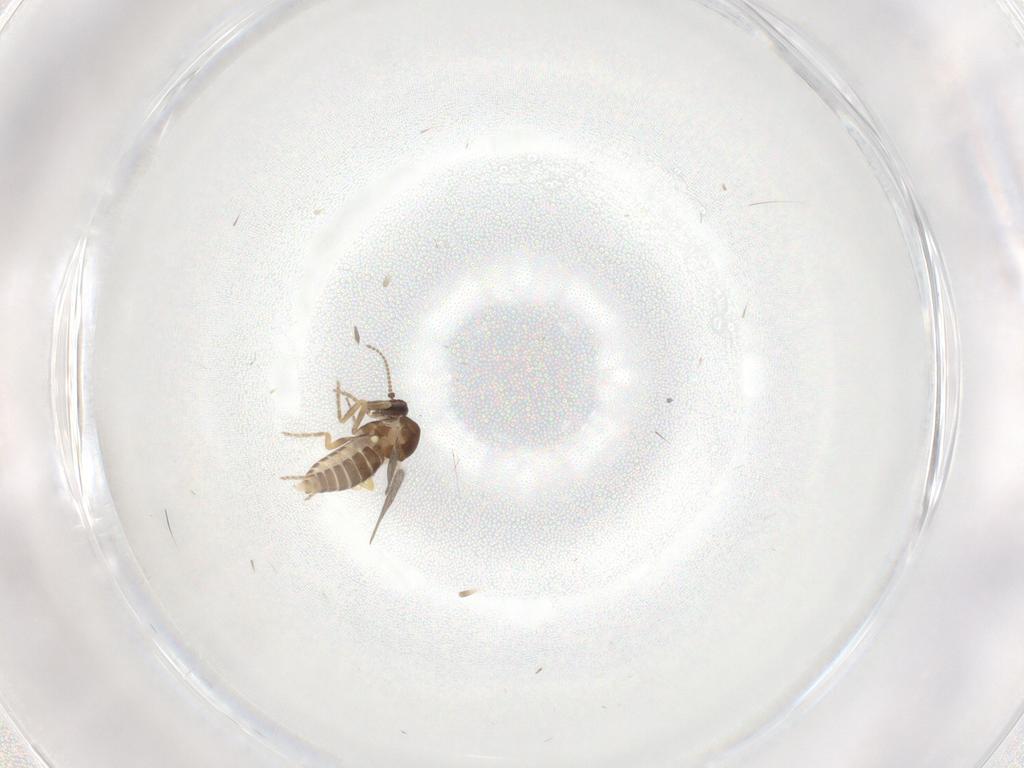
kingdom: Animalia
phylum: Arthropoda
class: Insecta
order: Diptera
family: Ceratopogonidae
